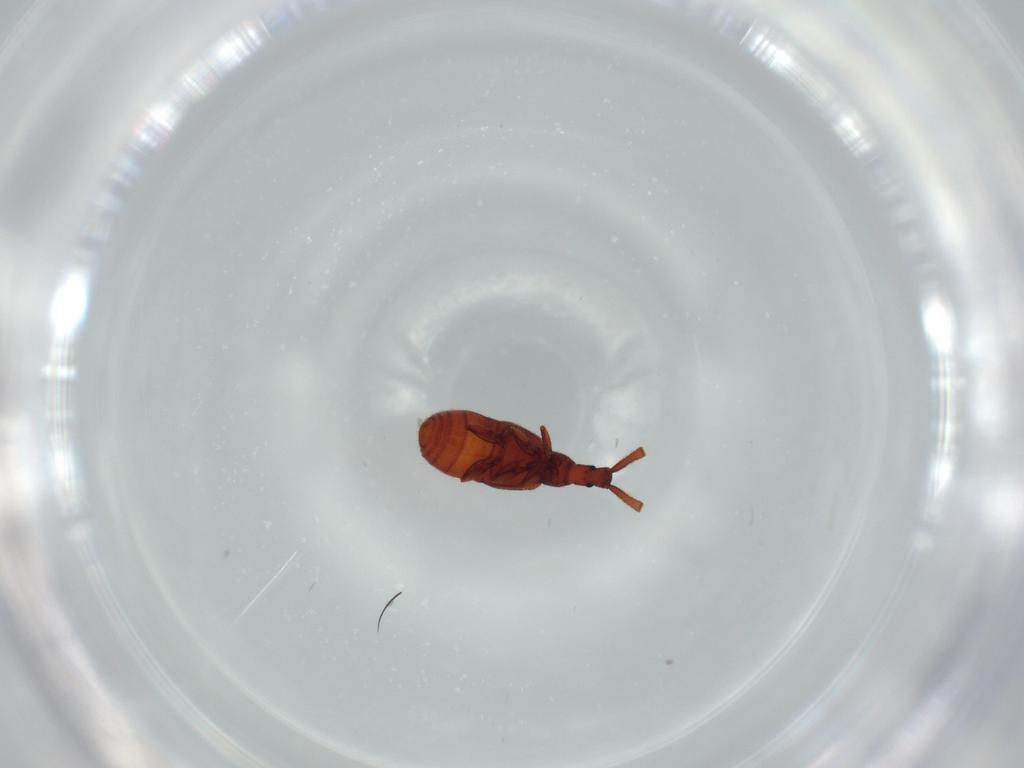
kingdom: Animalia
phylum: Arthropoda
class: Insecta
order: Coleoptera
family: Staphylinidae
